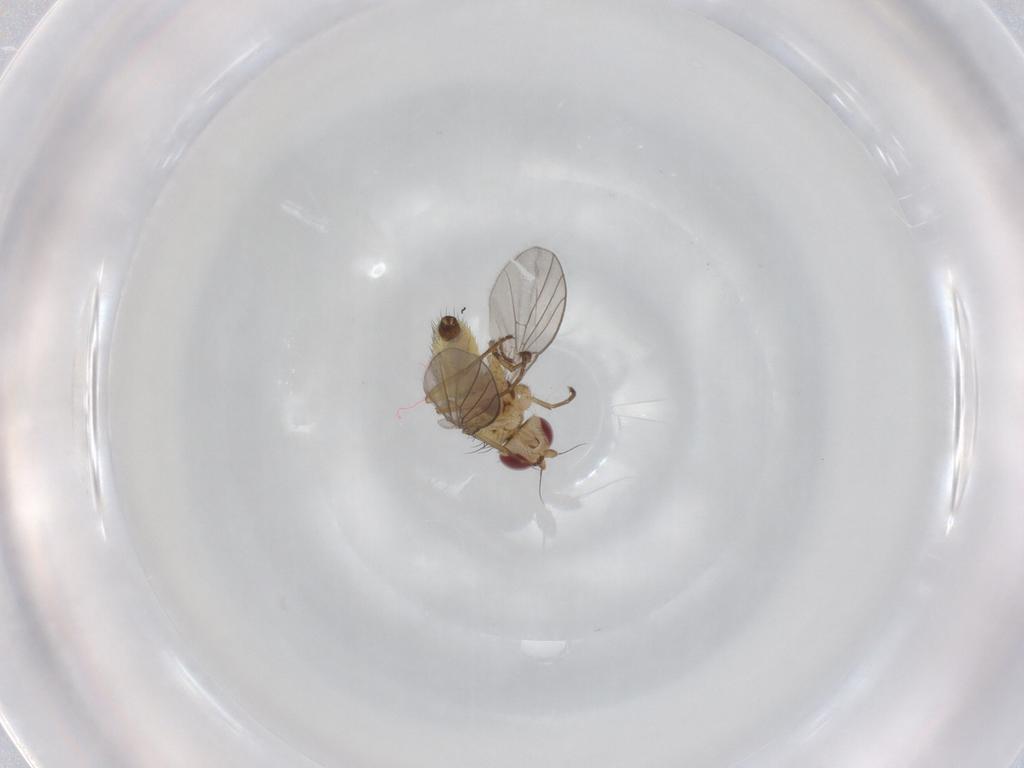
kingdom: Animalia
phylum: Arthropoda
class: Insecta
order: Diptera
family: Agromyzidae
